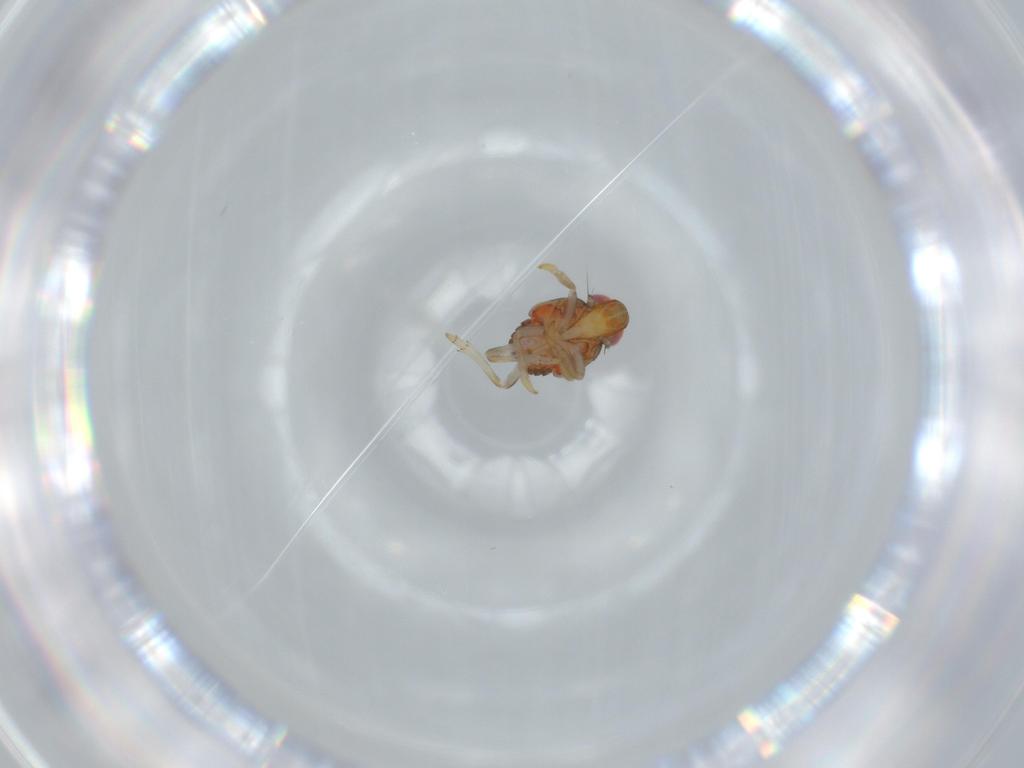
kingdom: Animalia
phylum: Arthropoda
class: Insecta
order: Hemiptera
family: Issidae
